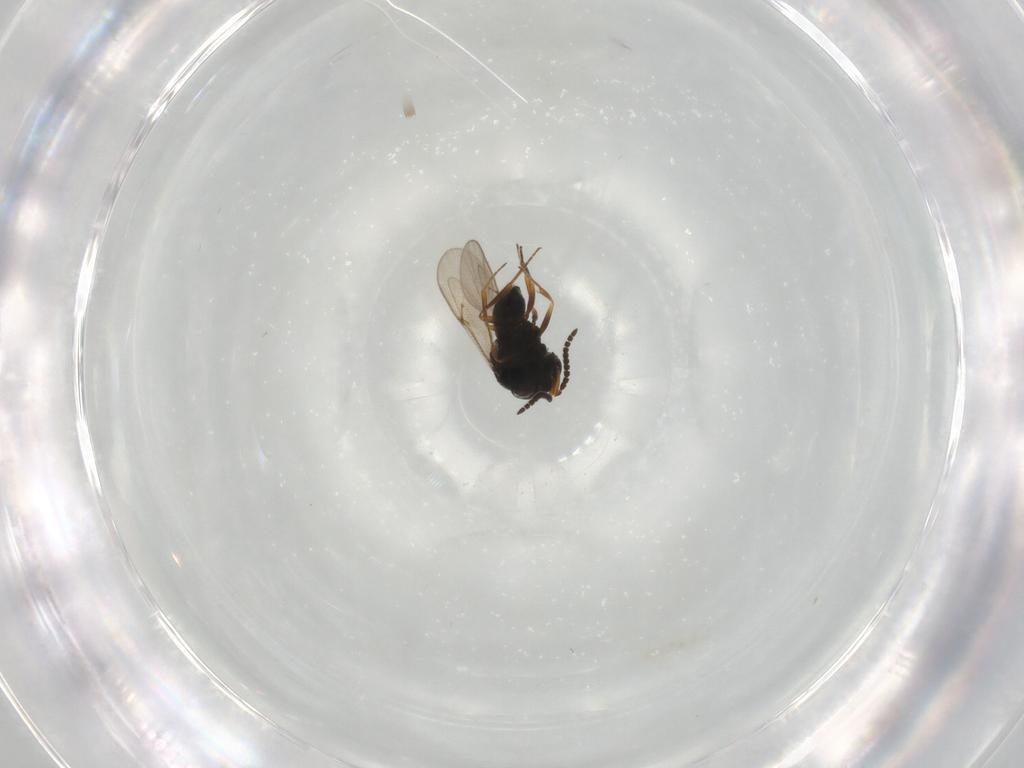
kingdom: Animalia
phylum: Arthropoda
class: Insecta
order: Hymenoptera
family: Scelionidae
